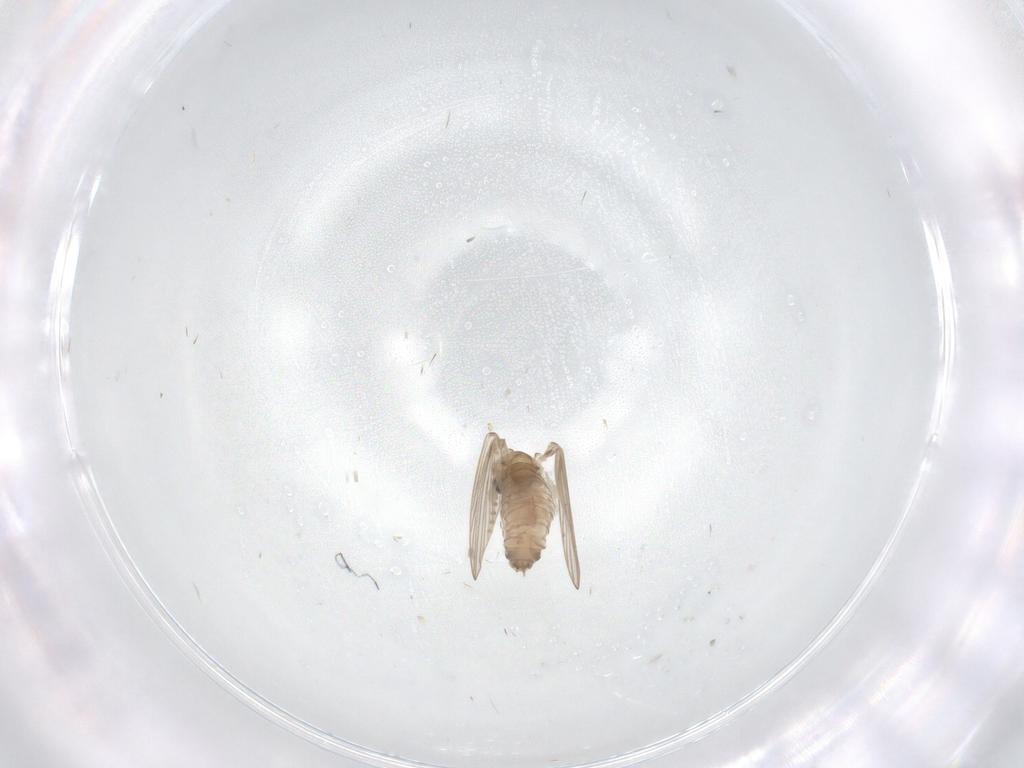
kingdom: Animalia
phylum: Arthropoda
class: Insecta
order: Diptera
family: Psychodidae
